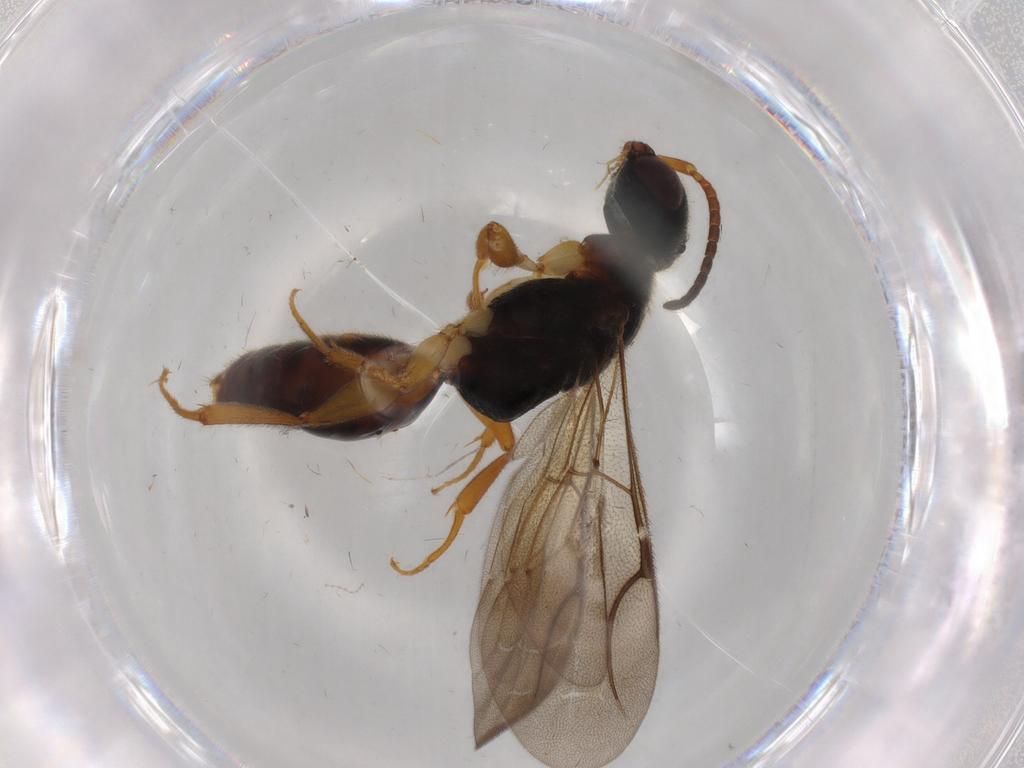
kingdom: Animalia
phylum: Arthropoda
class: Insecta
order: Hymenoptera
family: Bethylidae
